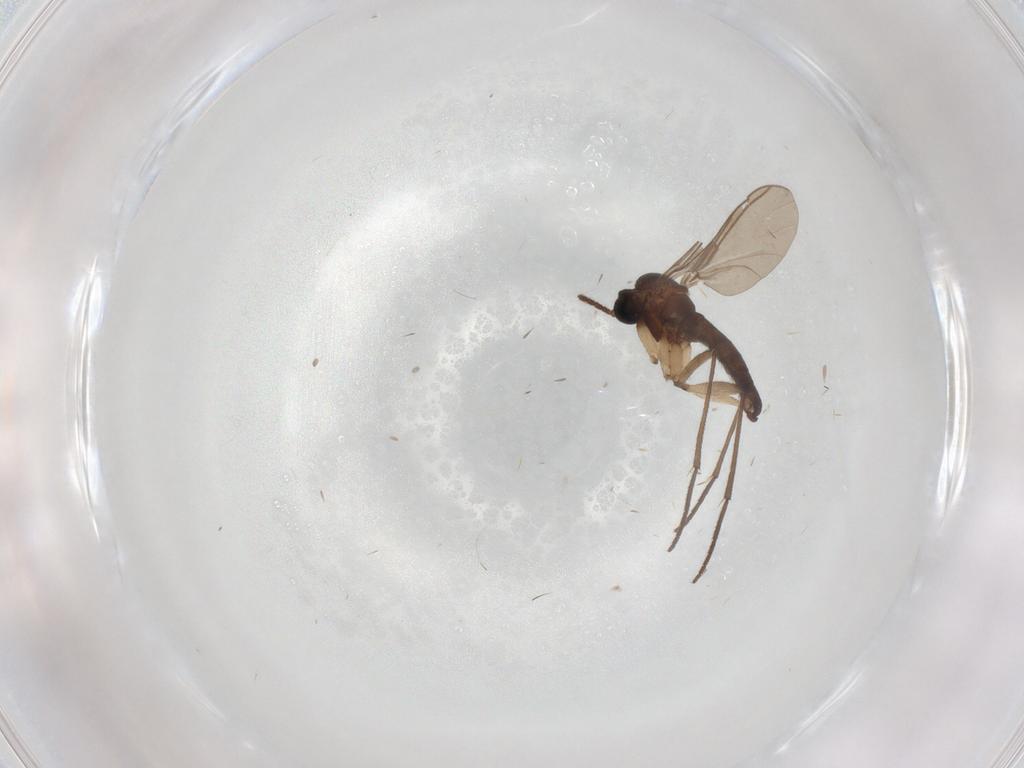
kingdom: Animalia
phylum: Arthropoda
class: Insecta
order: Diptera
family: Sciaridae
